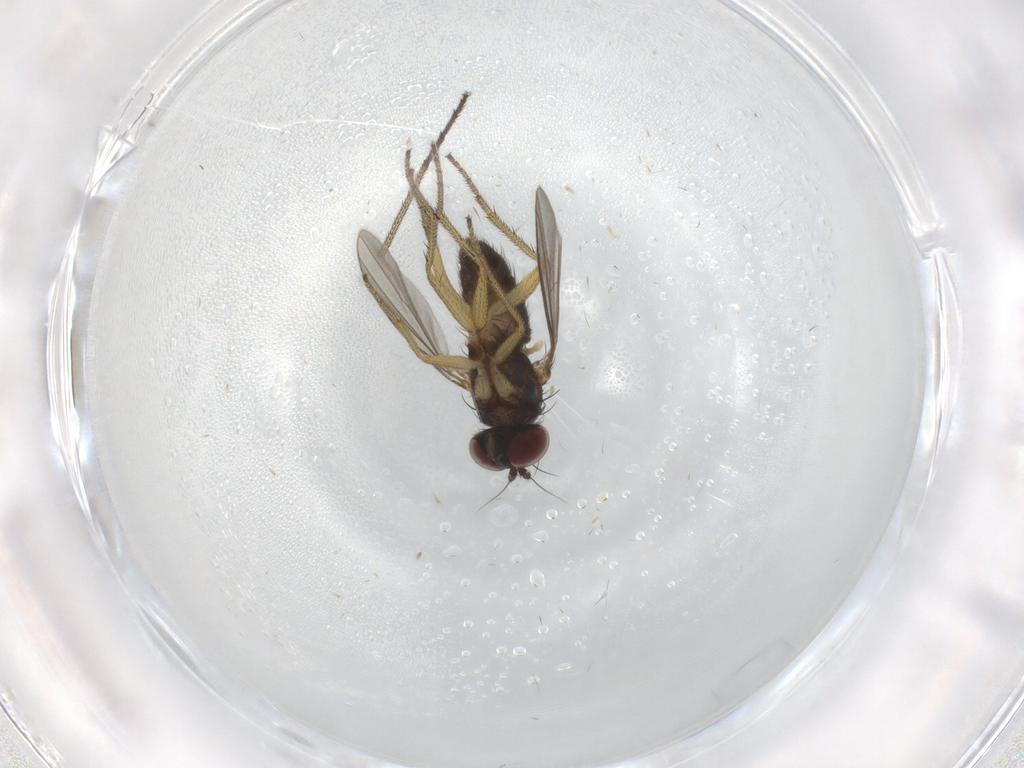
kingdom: Animalia
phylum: Arthropoda
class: Insecta
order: Diptera
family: Dolichopodidae
